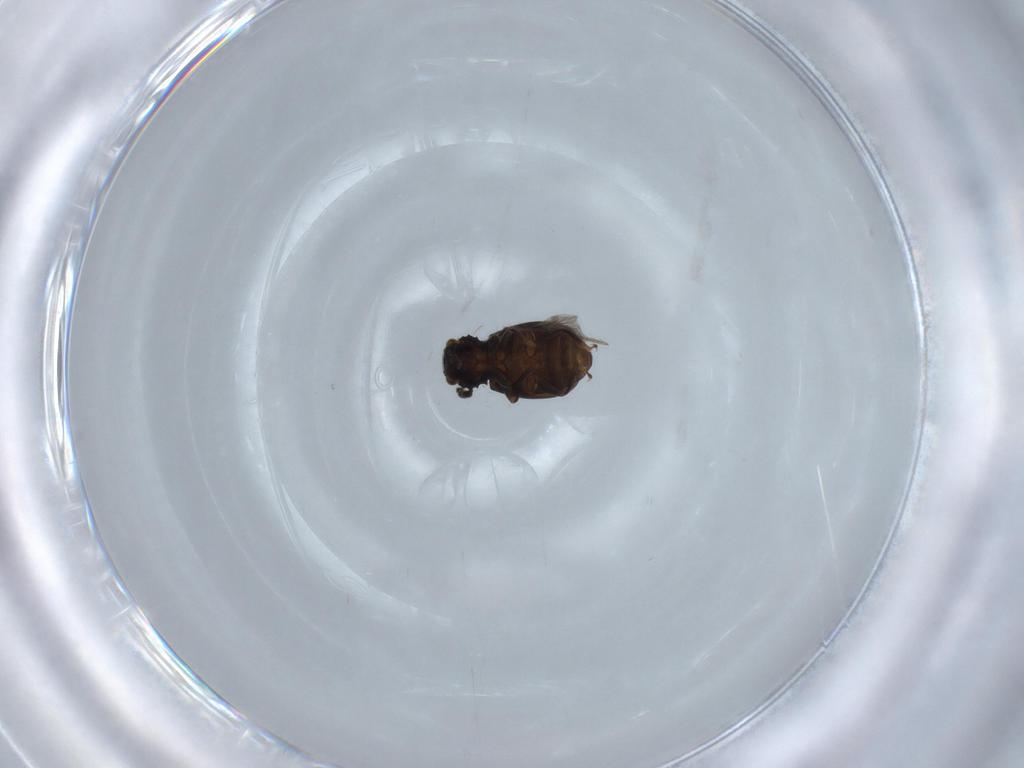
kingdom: Animalia
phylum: Arthropoda
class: Insecta
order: Coleoptera
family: Salpingidae
